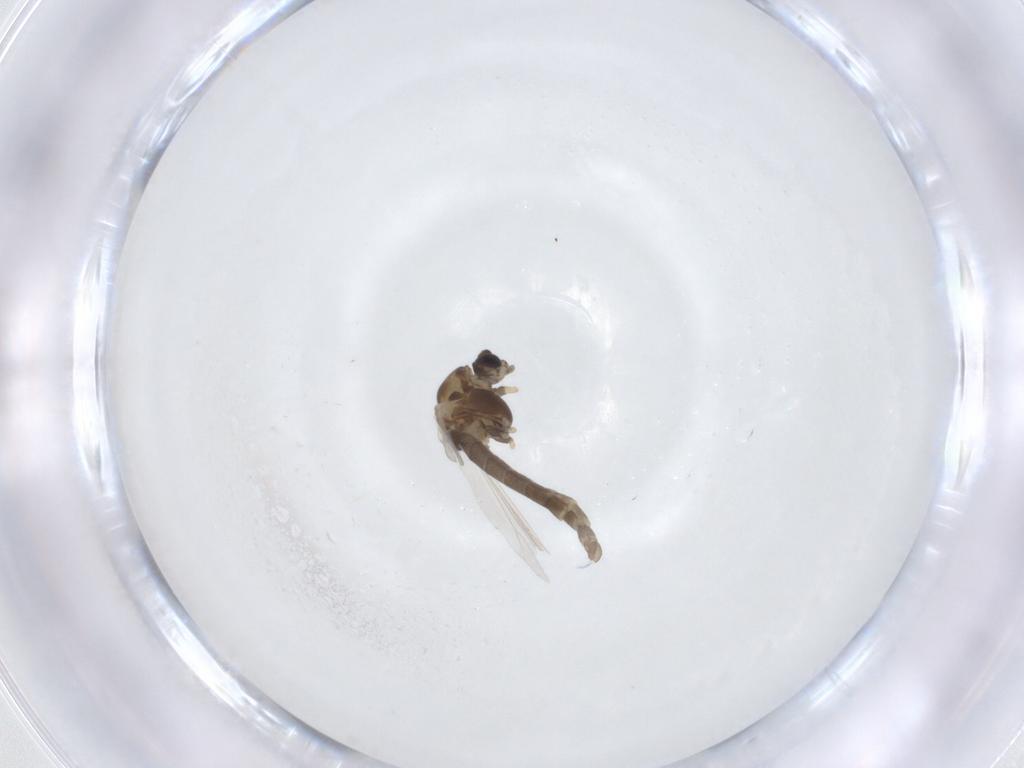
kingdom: Animalia
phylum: Arthropoda
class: Insecta
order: Diptera
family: Chironomidae
